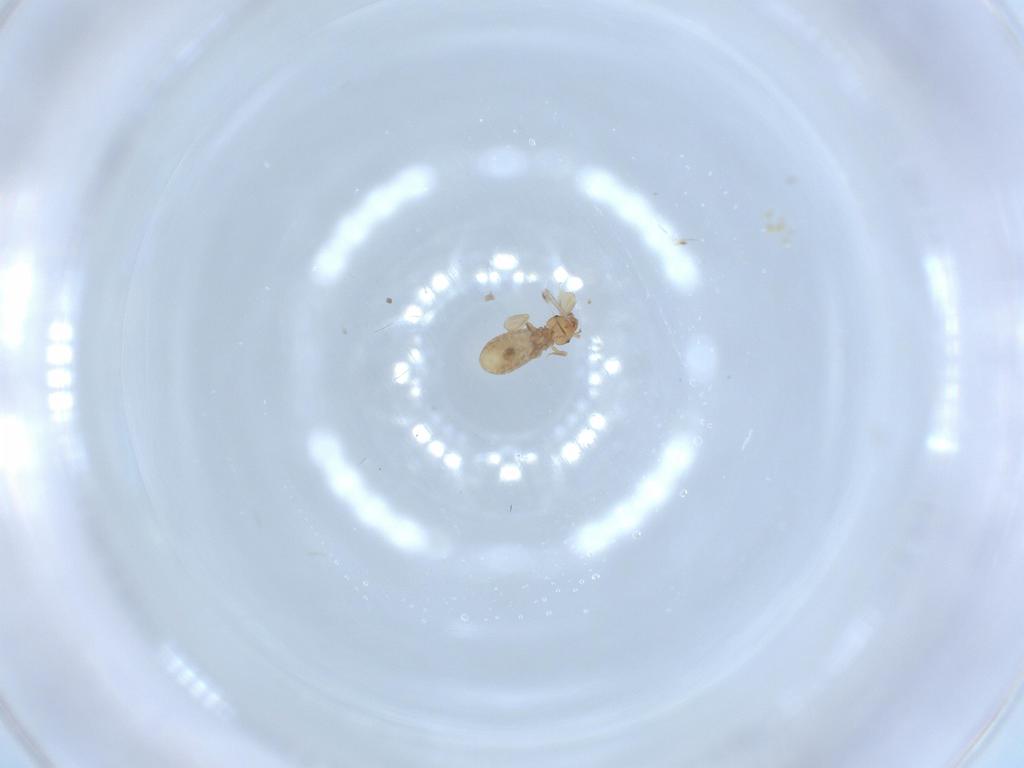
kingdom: Animalia
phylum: Arthropoda
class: Insecta
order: Psocodea
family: Liposcelididae
